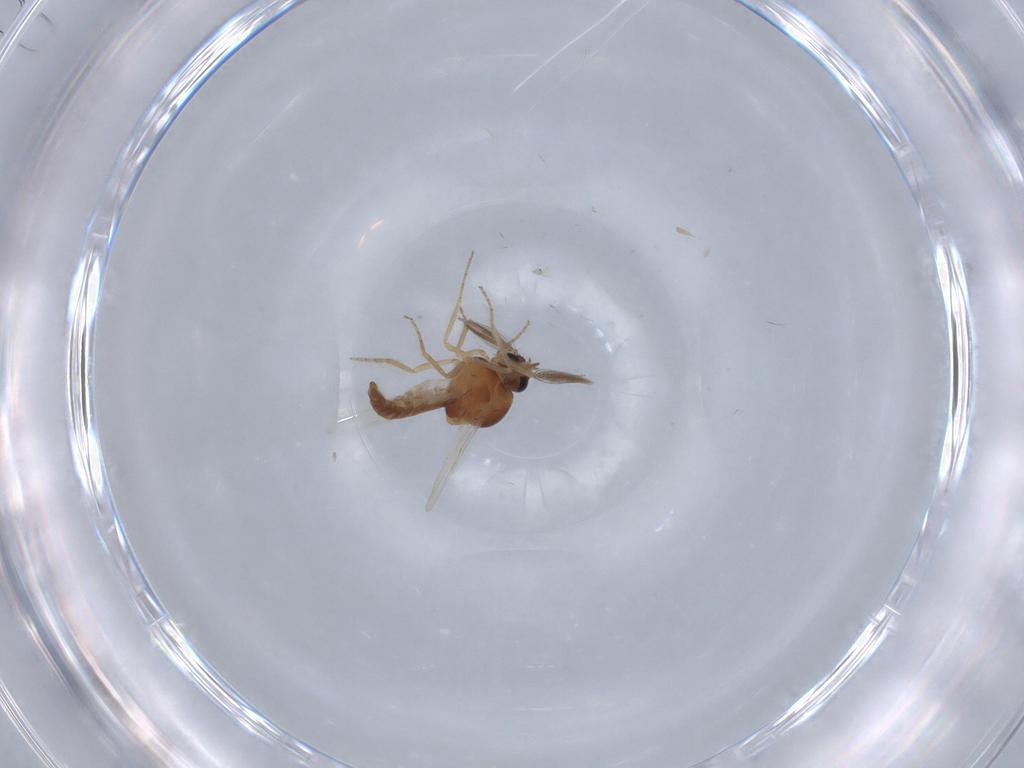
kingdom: Animalia
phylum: Arthropoda
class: Insecta
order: Diptera
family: Ceratopogonidae
